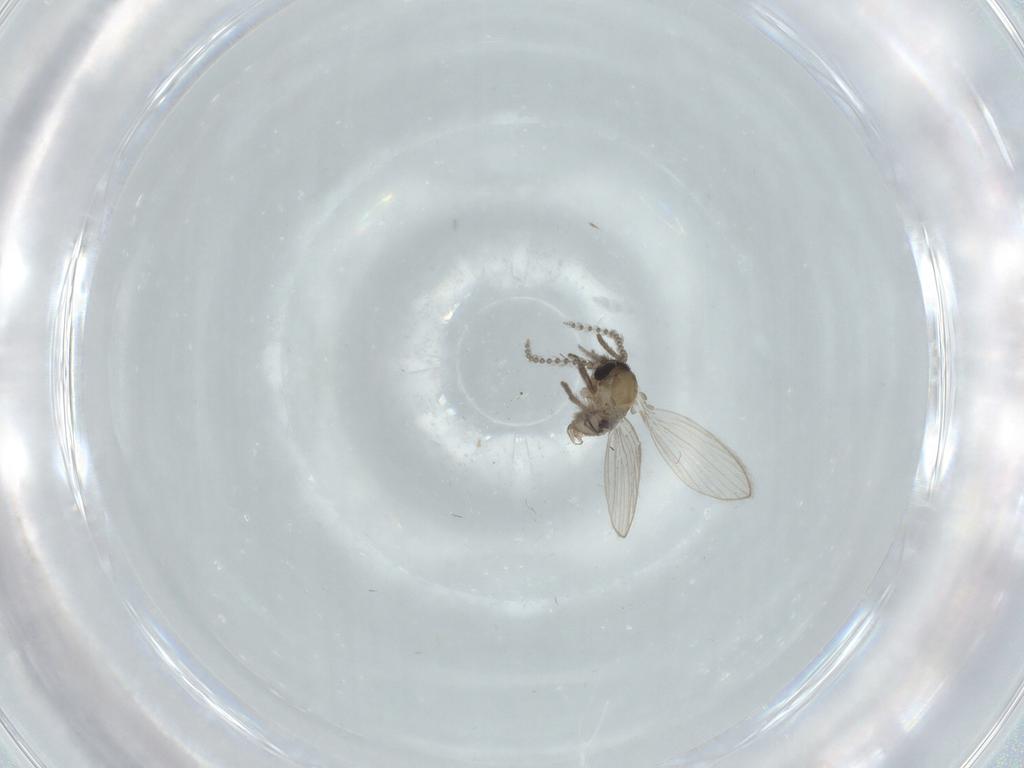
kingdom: Animalia
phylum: Arthropoda
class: Insecta
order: Diptera
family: Psychodidae
